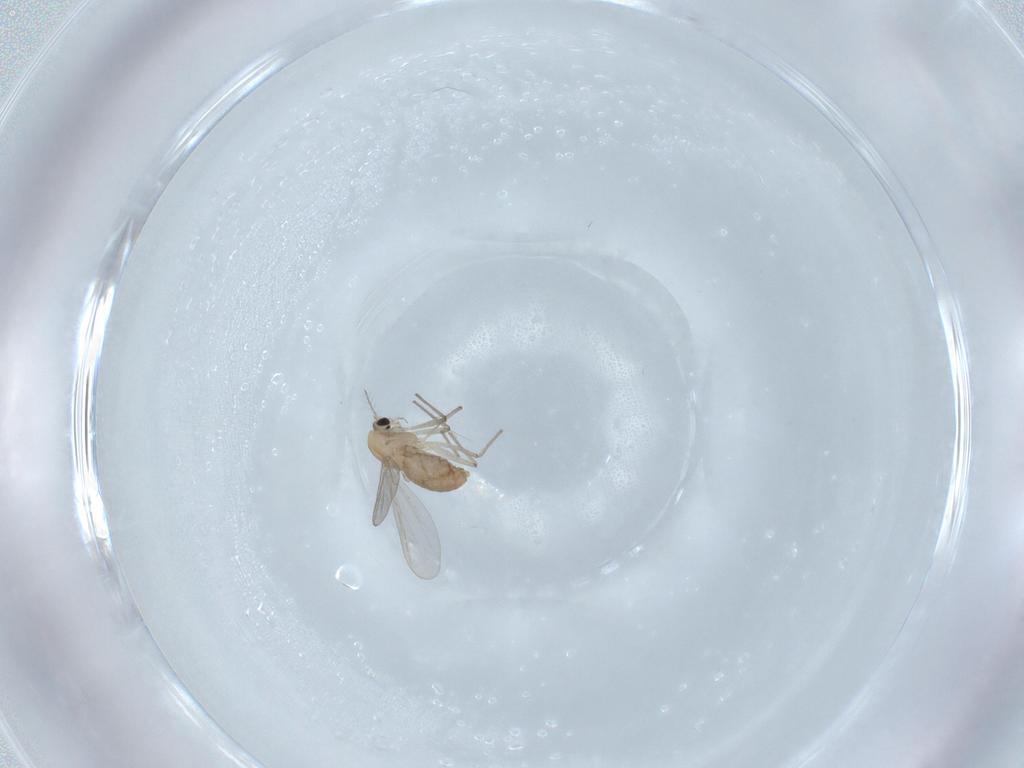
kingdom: Animalia
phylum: Arthropoda
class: Insecta
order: Diptera
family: Chironomidae
